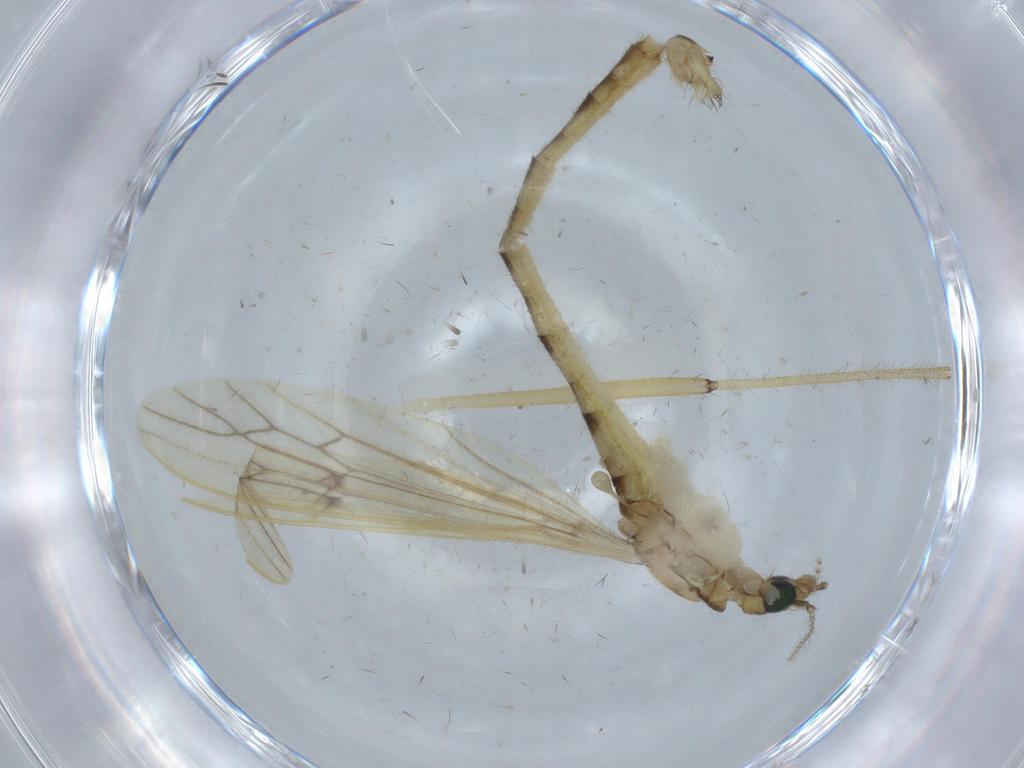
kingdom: Animalia
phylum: Arthropoda
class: Insecta
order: Diptera
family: Cecidomyiidae
